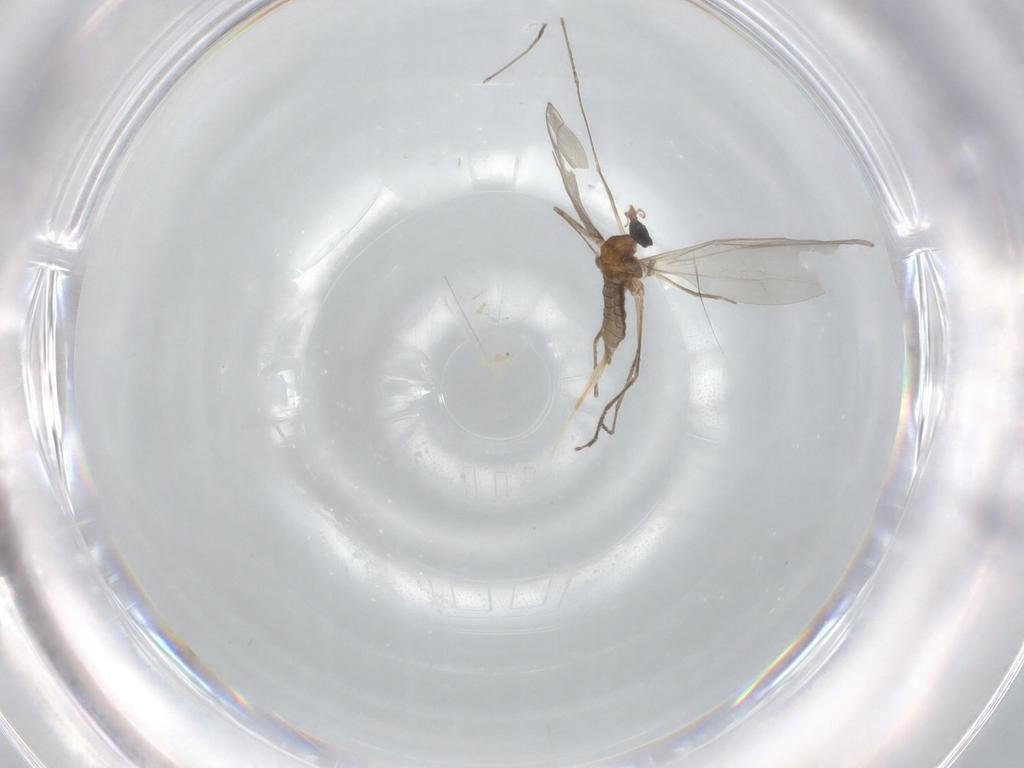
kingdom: Animalia
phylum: Arthropoda
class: Insecta
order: Diptera
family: Cecidomyiidae
